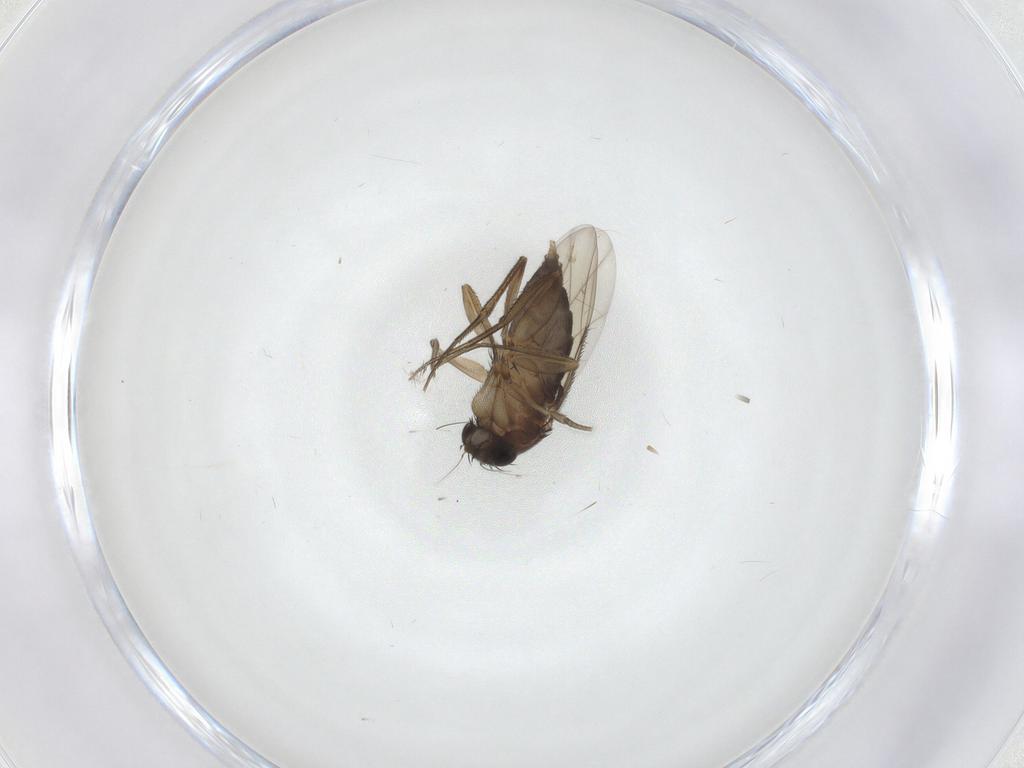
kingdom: Animalia
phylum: Arthropoda
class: Insecta
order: Diptera
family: Phoridae
